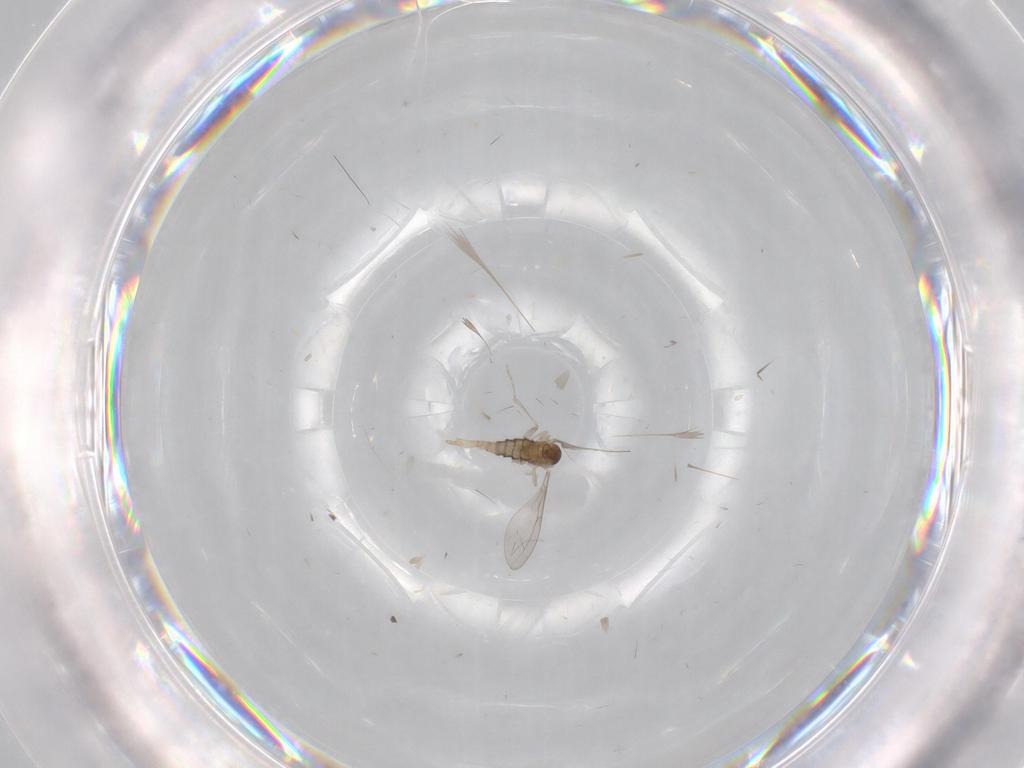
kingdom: Animalia
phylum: Arthropoda
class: Insecta
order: Diptera
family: Cecidomyiidae
